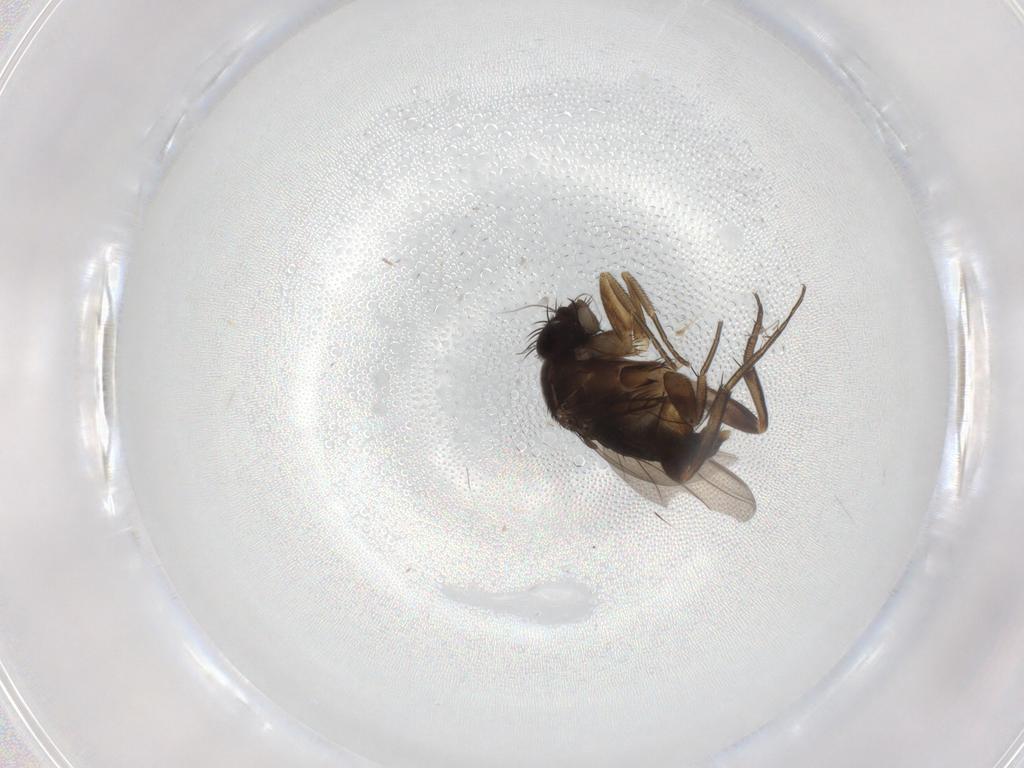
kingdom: Animalia
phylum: Arthropoda
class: Insecta
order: Diptera
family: Phoridae
